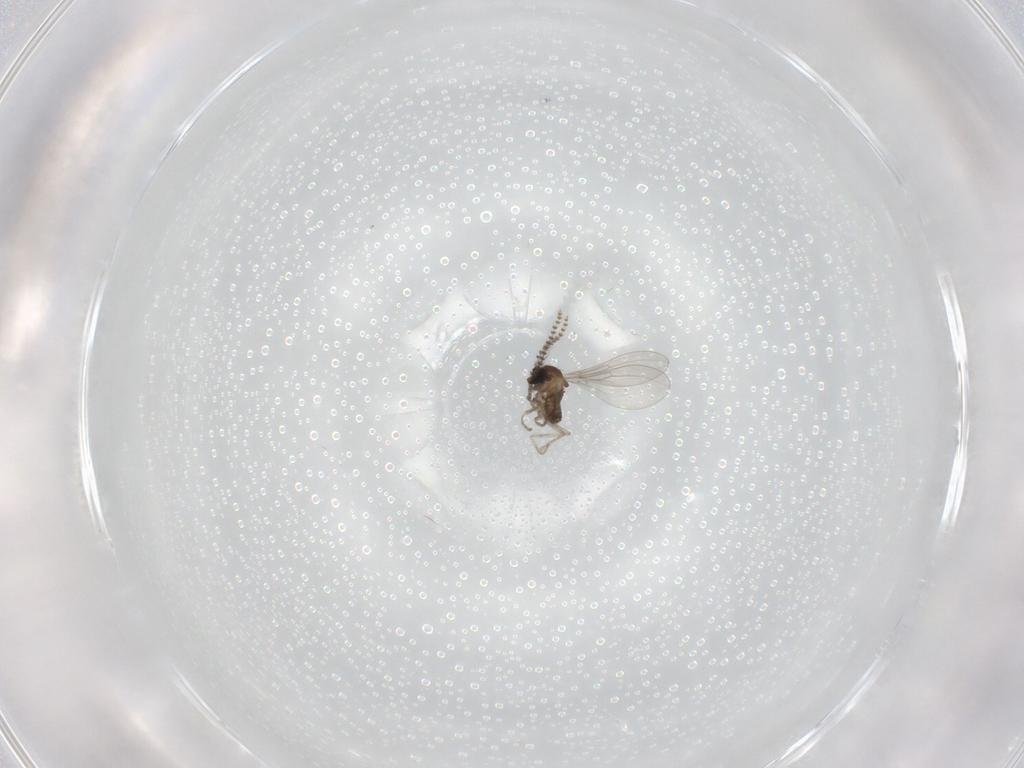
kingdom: Animalia
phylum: Arthropoda
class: Insecta
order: Diptera
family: Cecidomyiidae
